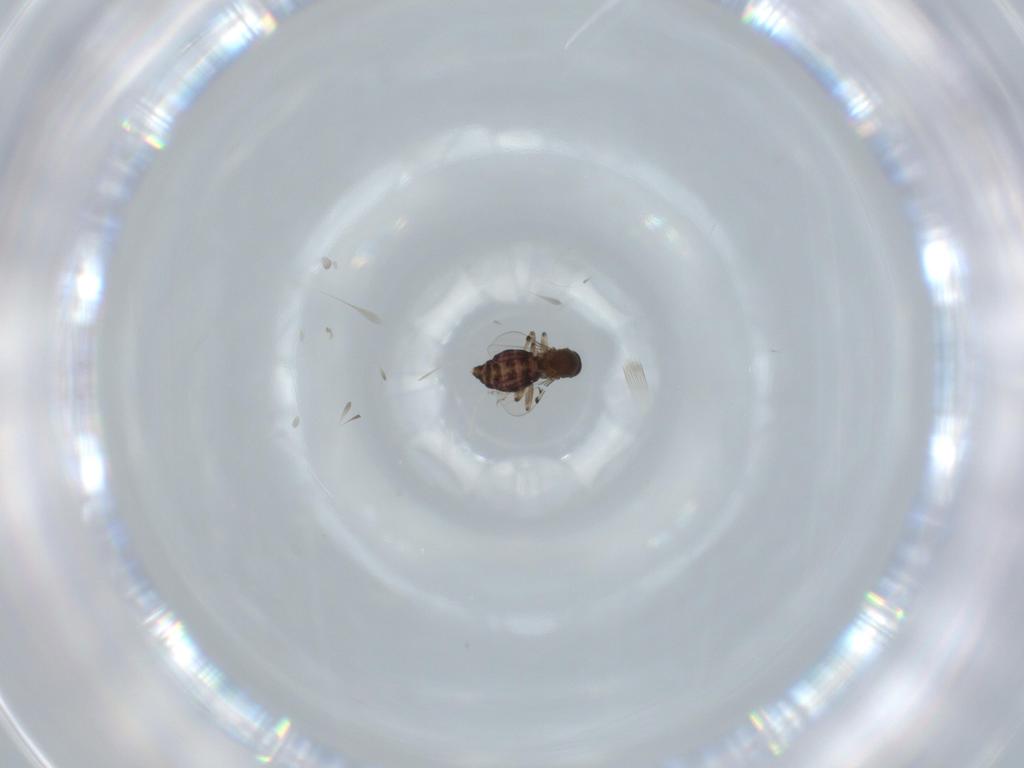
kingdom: Animalia
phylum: Arthropoda
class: Insecta
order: Diptera
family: Ceratopogonidae
